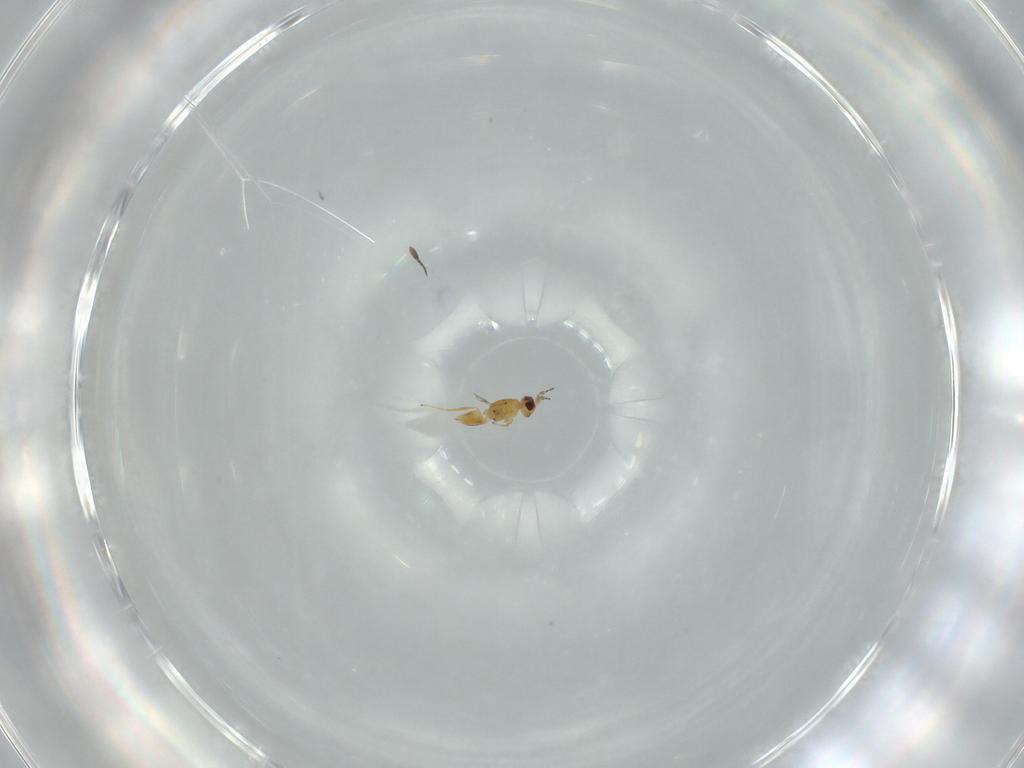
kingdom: Animalia
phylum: Arthropoda
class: Insecta
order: Hymenoptera
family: Mymaridae
